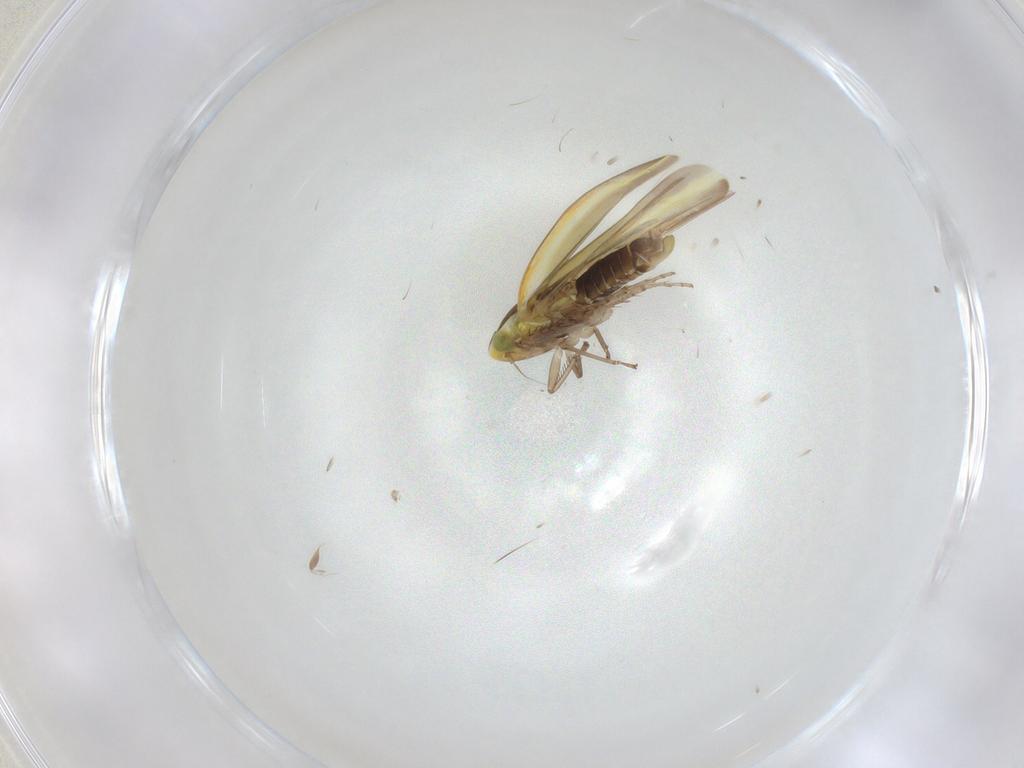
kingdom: Animalia
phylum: Arthropoda
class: Insecta
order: Hemiptera
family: Cicadellidae
